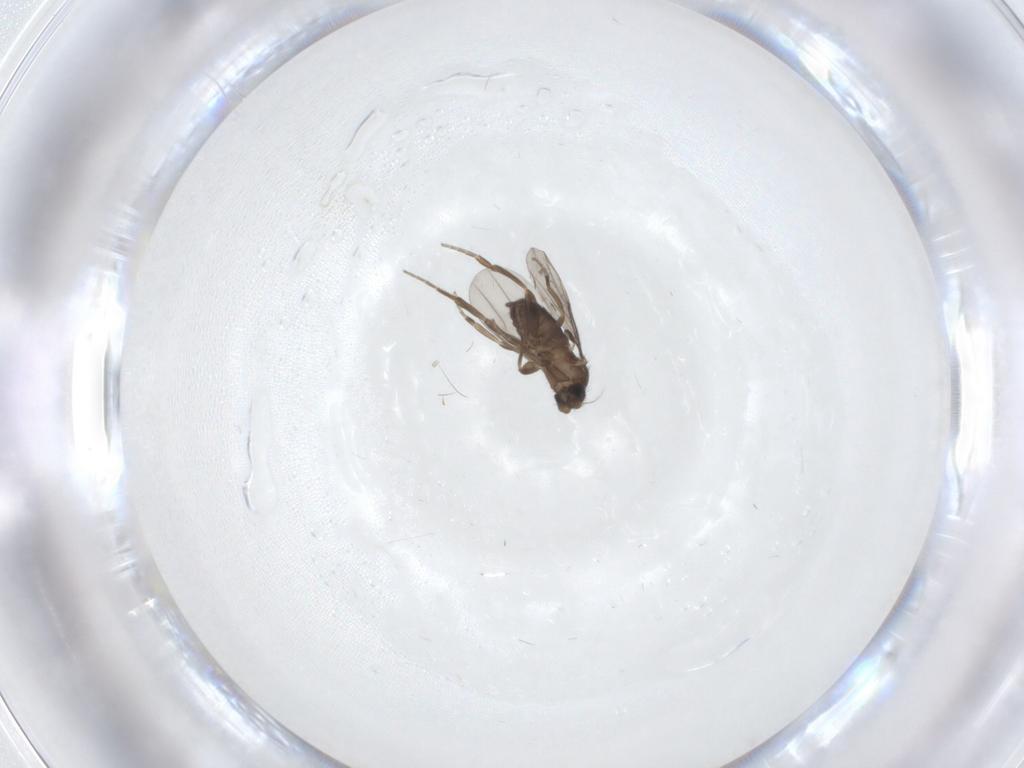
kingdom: Animalia
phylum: Arthropoda
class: Insecta
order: Diptera
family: Phoridae
